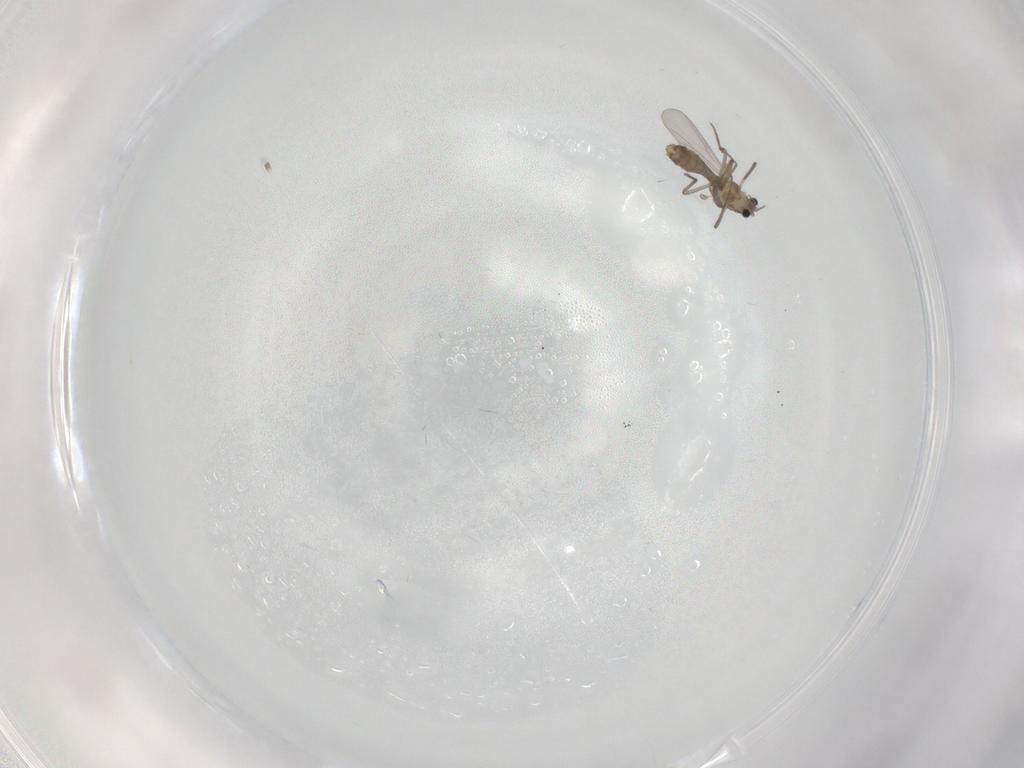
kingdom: Animalia
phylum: Arthropoda
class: Insecta
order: Diptera
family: Chironomidae
